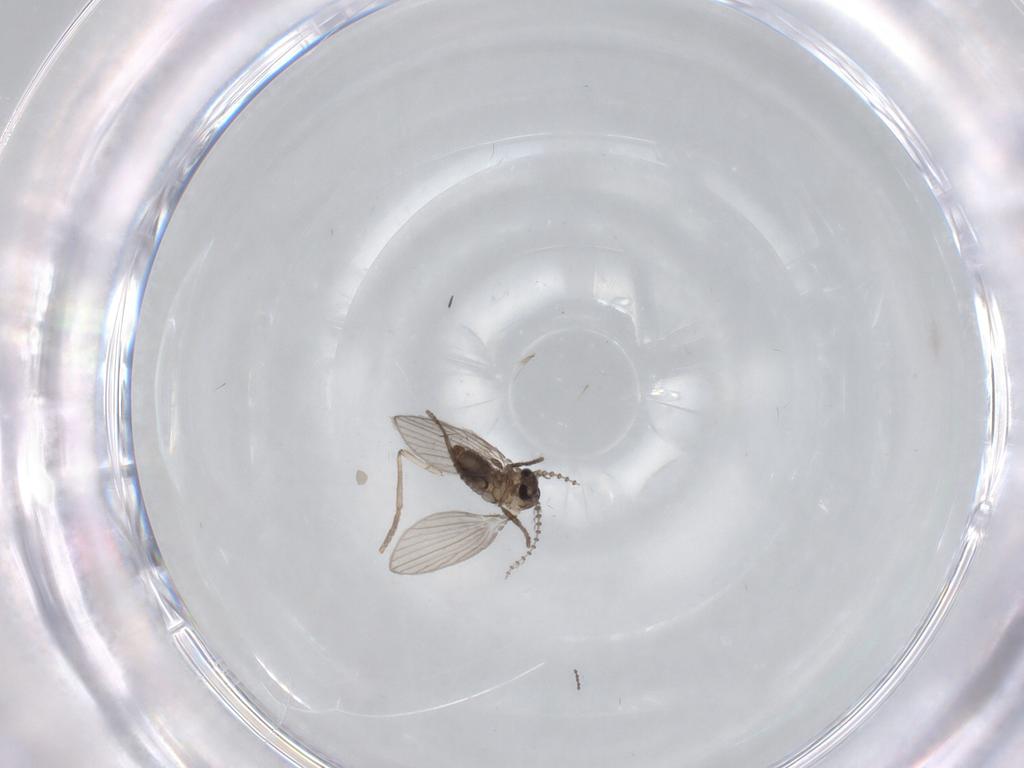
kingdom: Animalia
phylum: Arthropoda
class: Insecta
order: Diptera
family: Psychodidae
